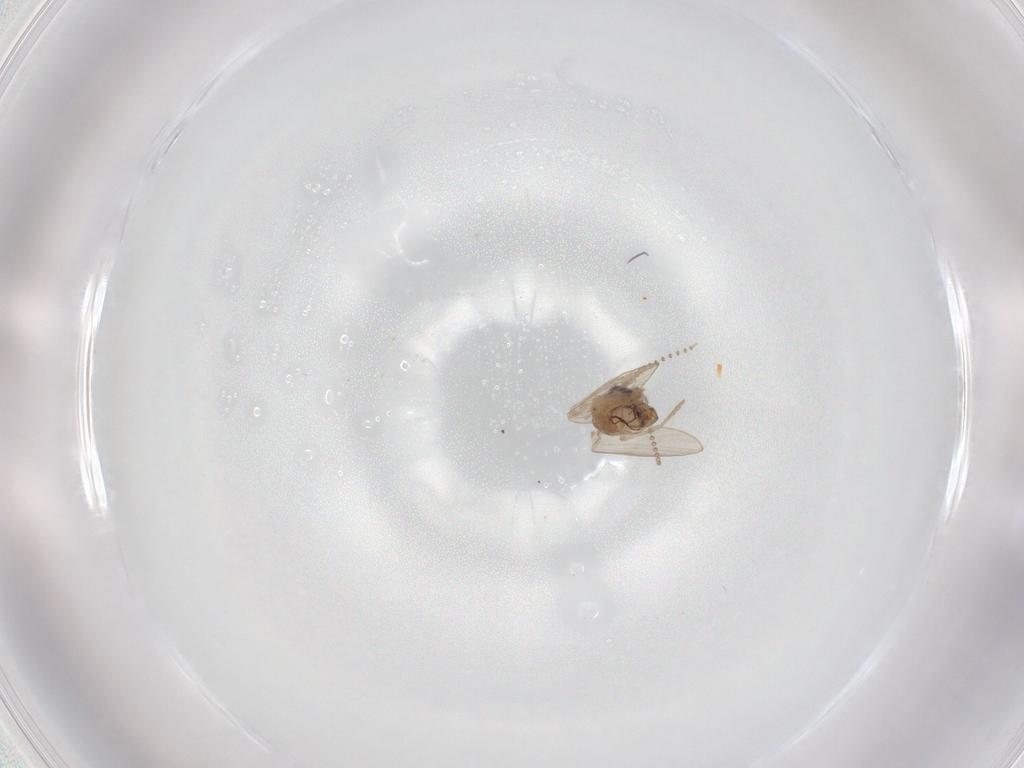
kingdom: Animalia
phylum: Arthropoda
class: Insecta
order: Diptera
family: Psychodidae
